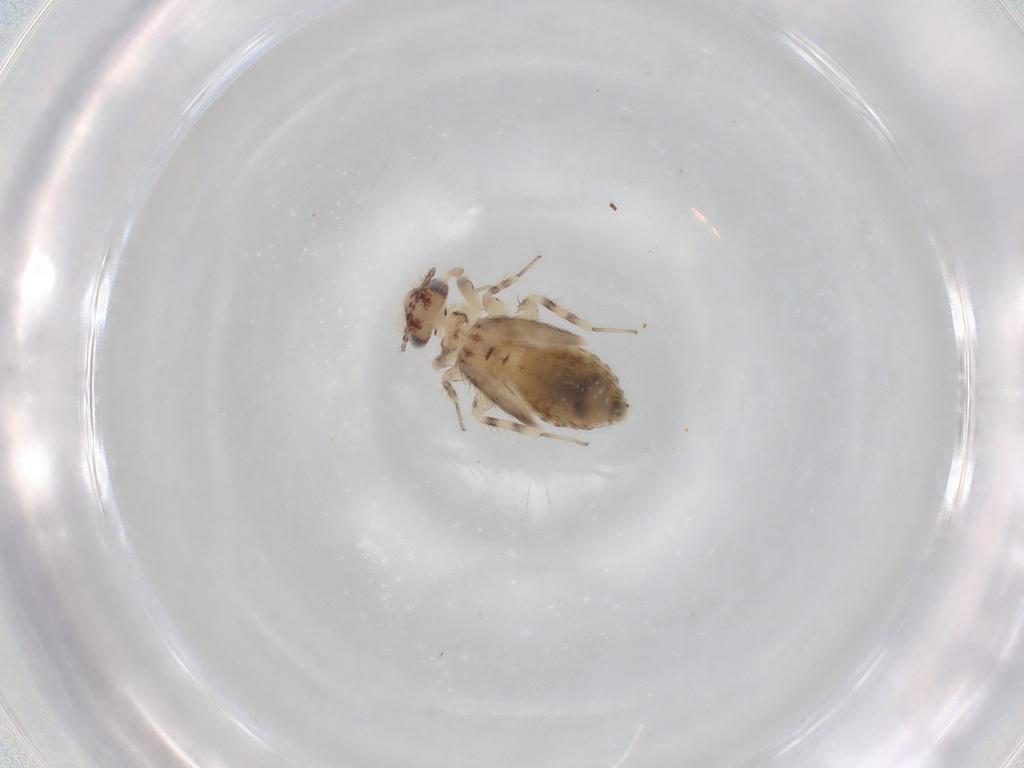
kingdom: Animalia
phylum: Arthropoda
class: Insecta
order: Psocodea
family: Lepidopsocidae
